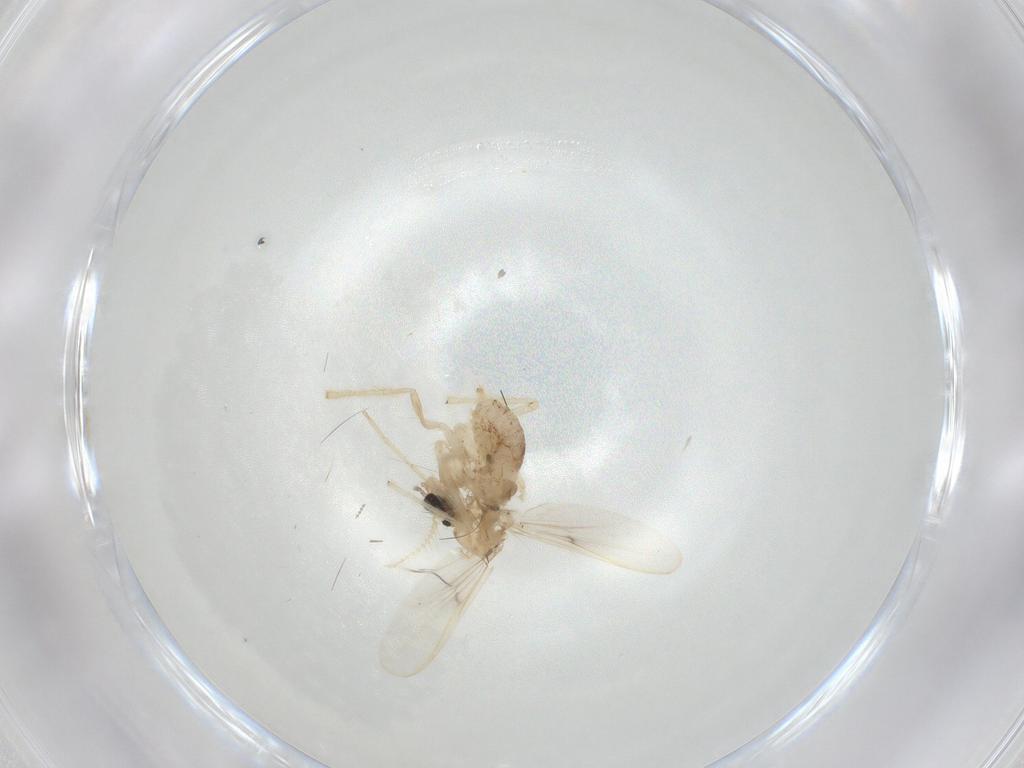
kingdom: Animalia
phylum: Arthropoda
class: Insecta
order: Diptera
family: Chironomidae
